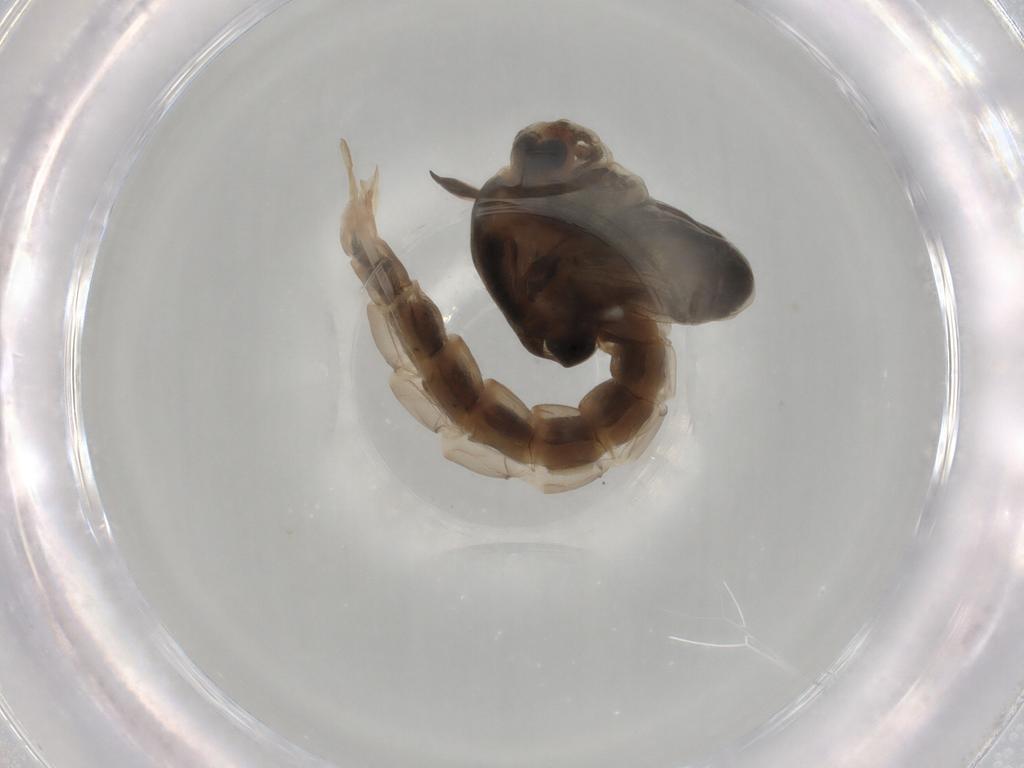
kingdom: Animalia
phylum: Arthropoda
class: Insecta
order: Diptera
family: Chironomidae
